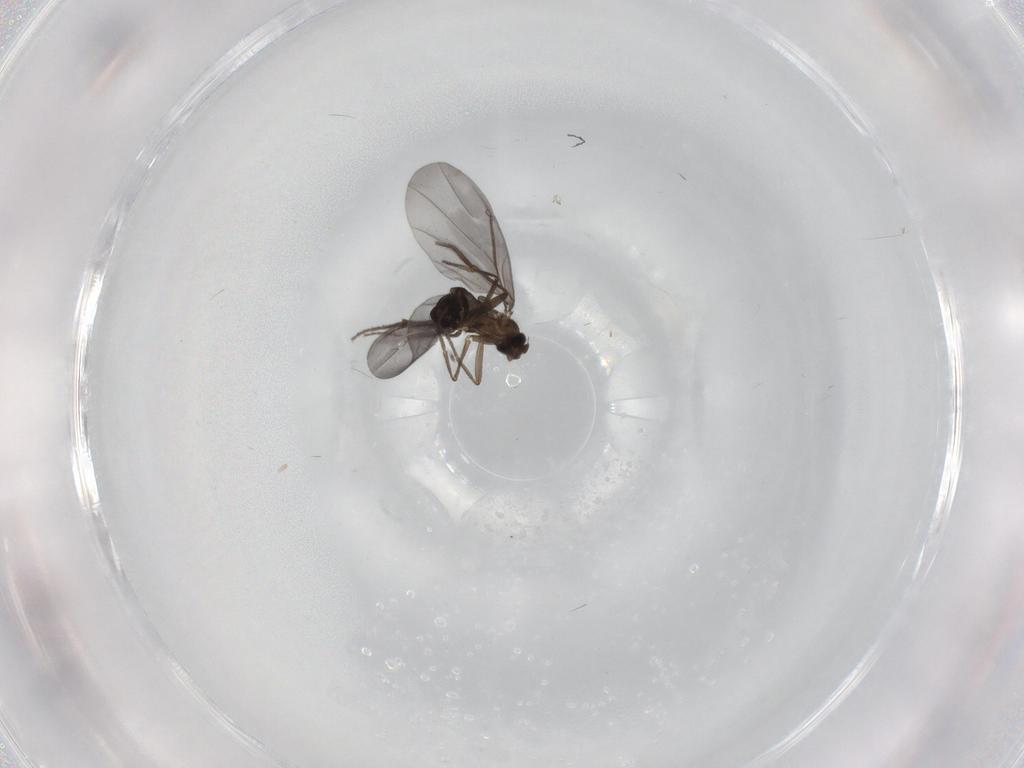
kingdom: Animalia
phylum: Arthropoda
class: Insecta
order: Diptera
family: Phoridae
